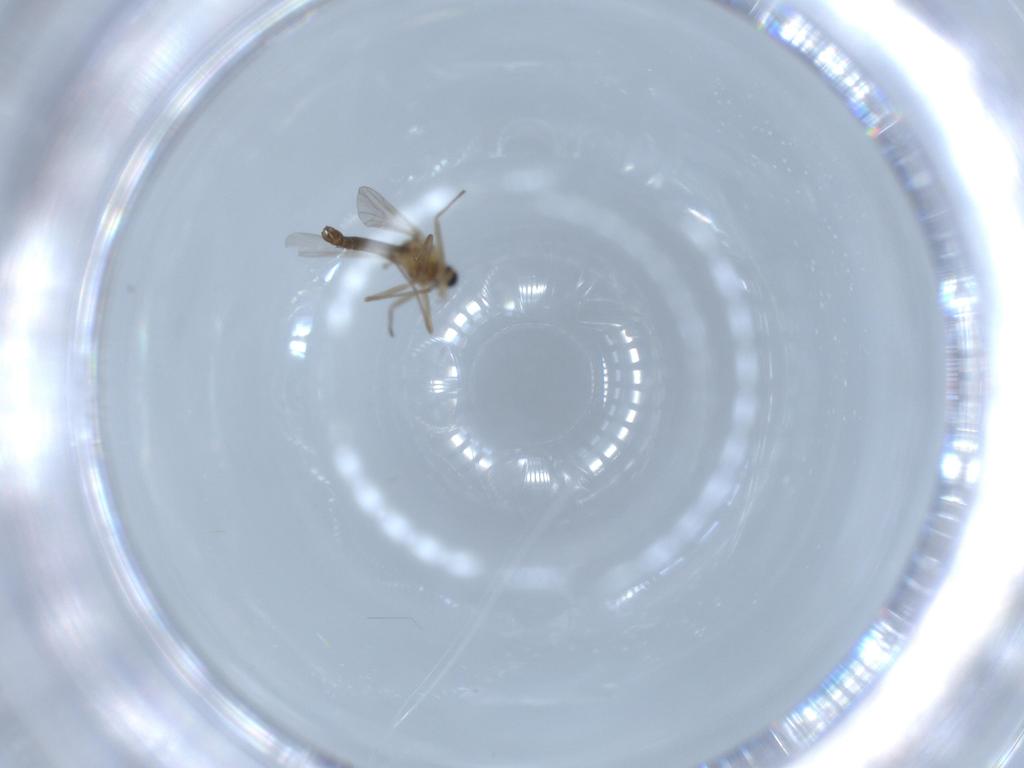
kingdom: Animalia
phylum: Arthropoda
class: Insecta
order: Diptera
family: Chironomidae
